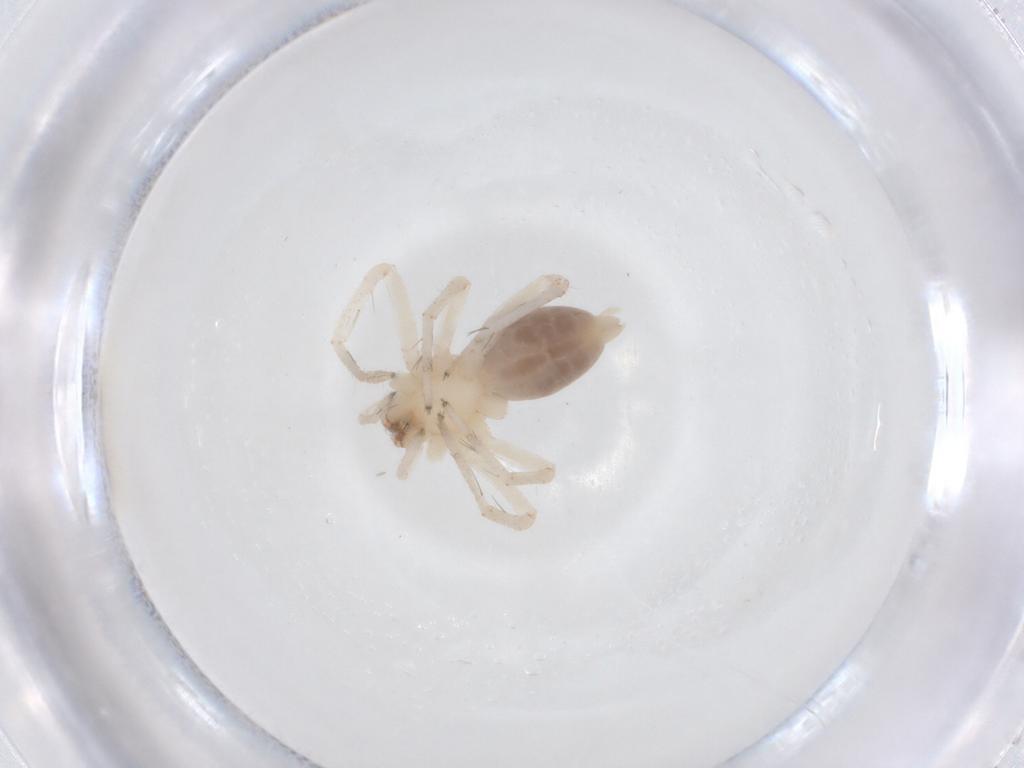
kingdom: Animalia
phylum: Arthropoda
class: Arachnida
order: Araneae
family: Anyphaenidae
